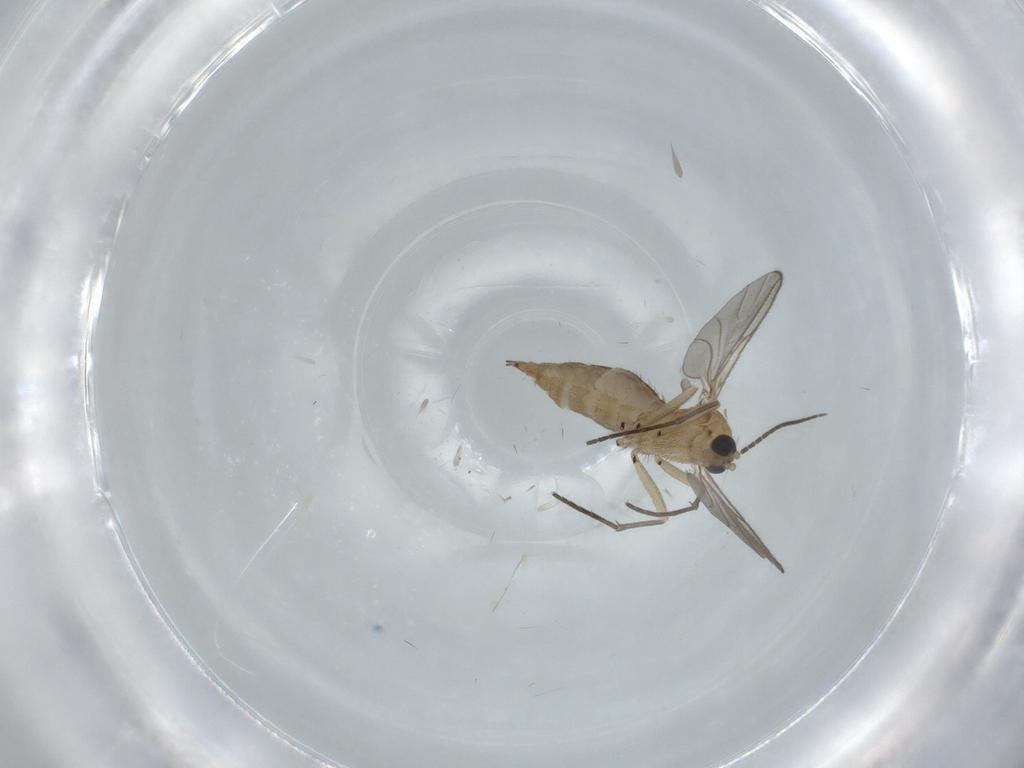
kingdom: Animalia
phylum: Arthropoda
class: Insecta
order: Diptera
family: Sciaridae
